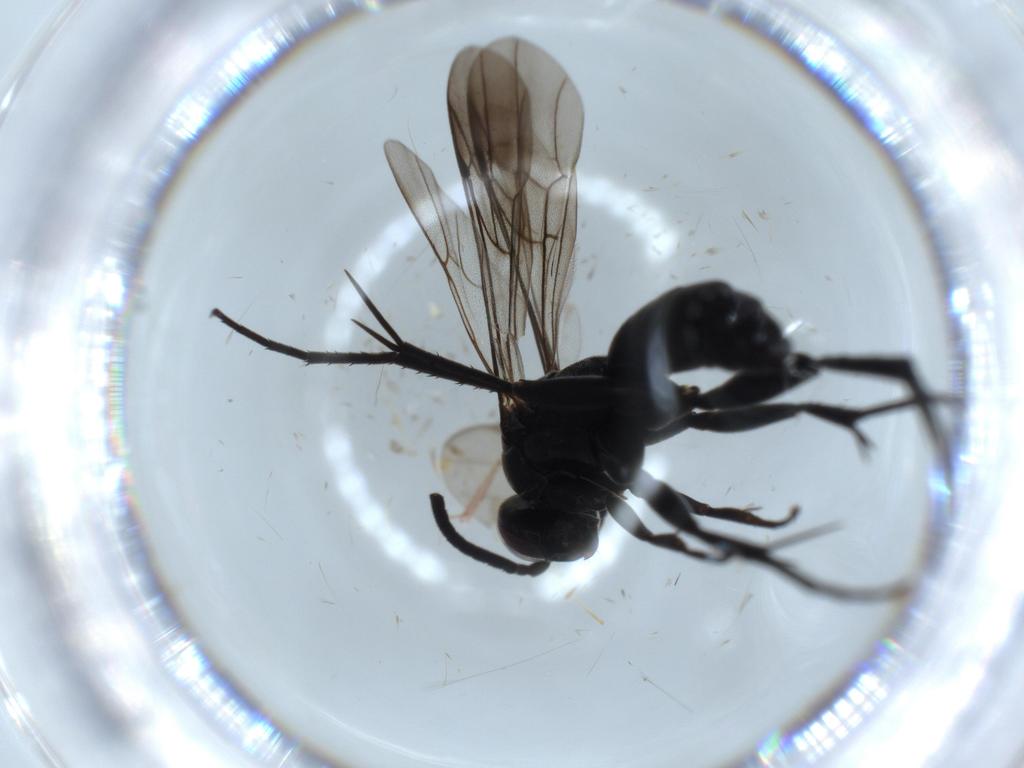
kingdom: Animalia
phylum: Arthropoda
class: Insecta
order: Hymenoptera
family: Pompilidae
